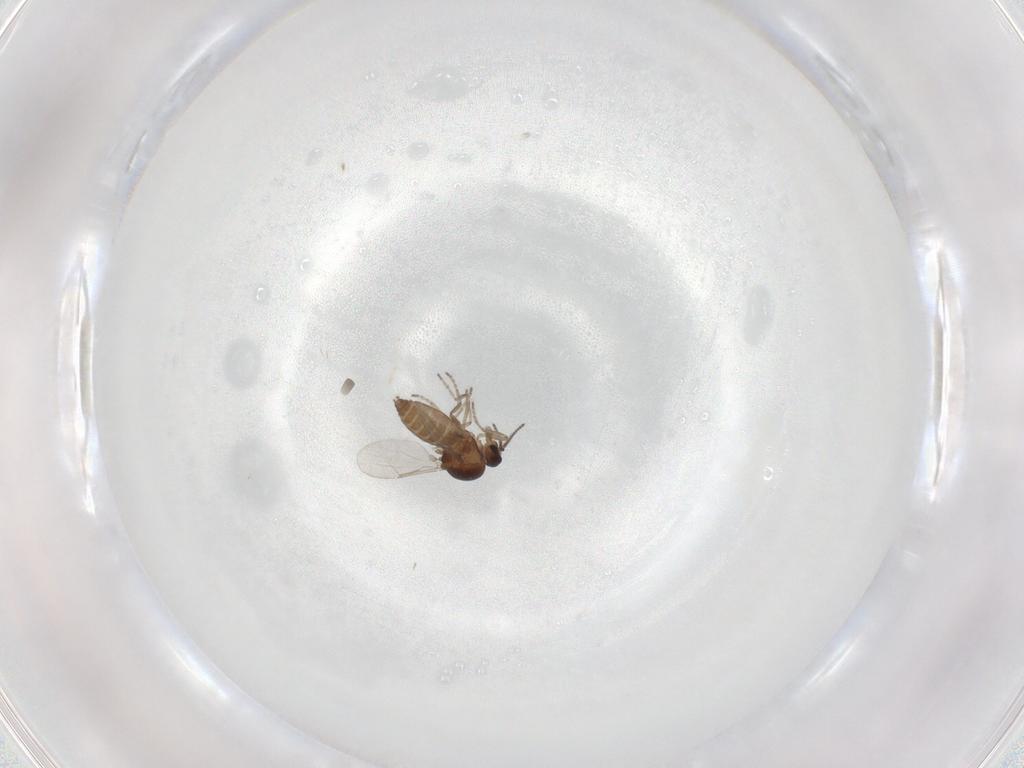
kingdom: Animalia
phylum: Arthropoda
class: Insecta
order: Diptera
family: Ceratopogonidae
